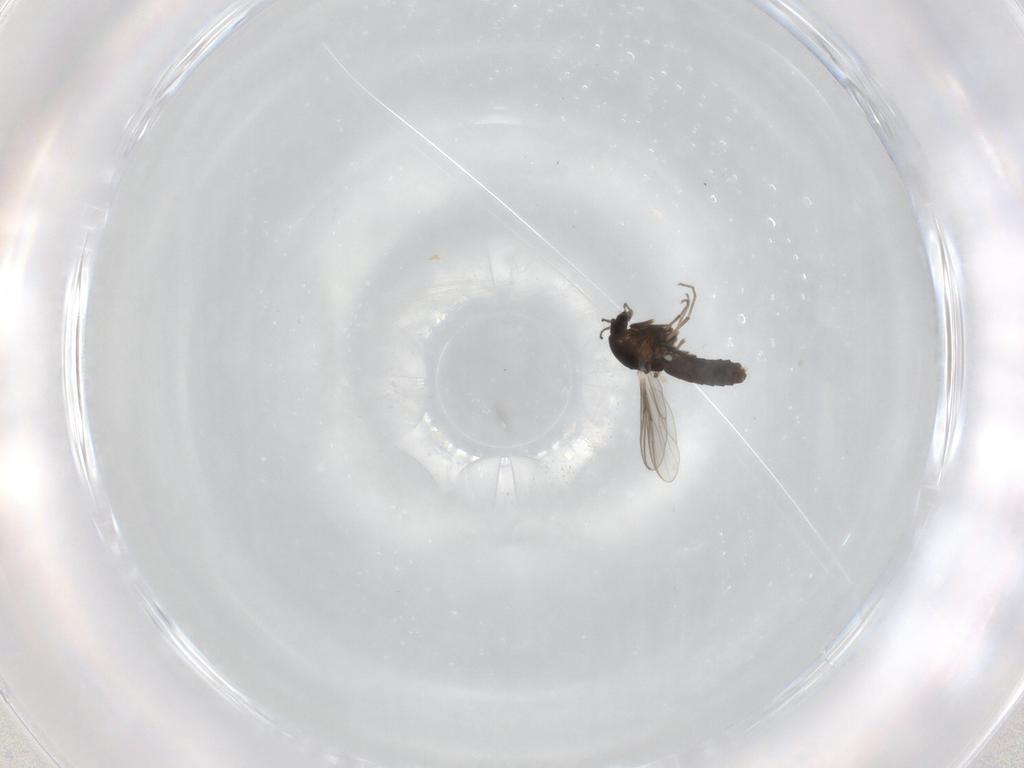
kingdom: Animalia
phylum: Arthropoda
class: Insecta
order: Diptera
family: Chironomidae
